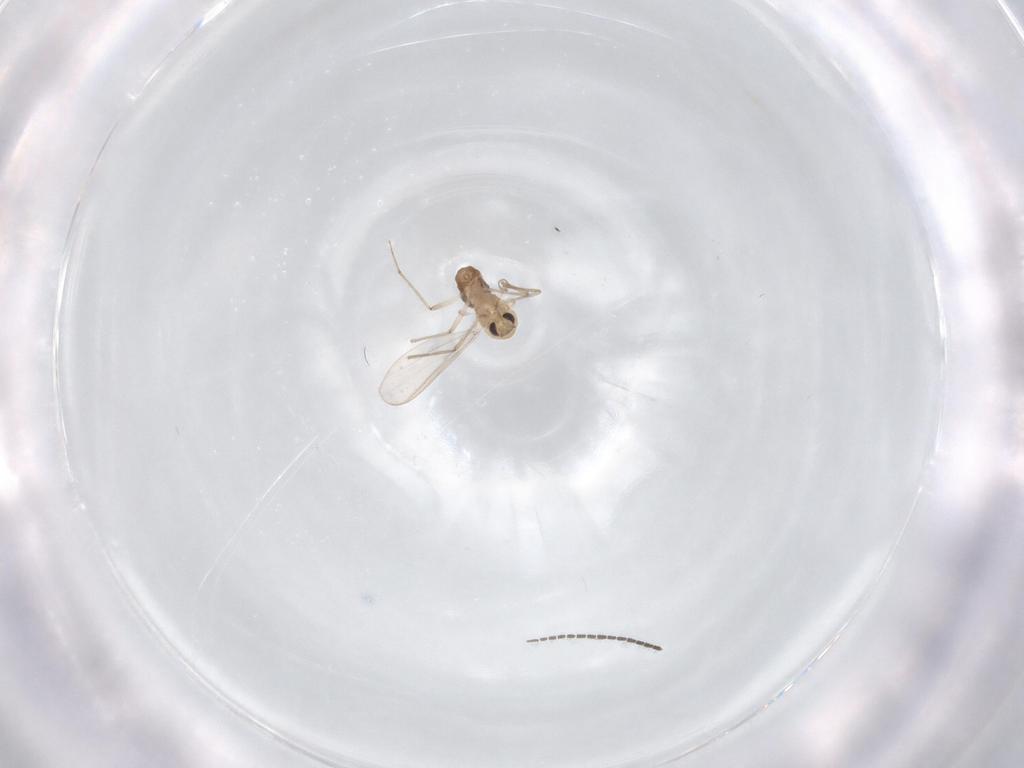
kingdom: Animalia
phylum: Arthropoda
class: Insecta
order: Diptera
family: Chironomidae
